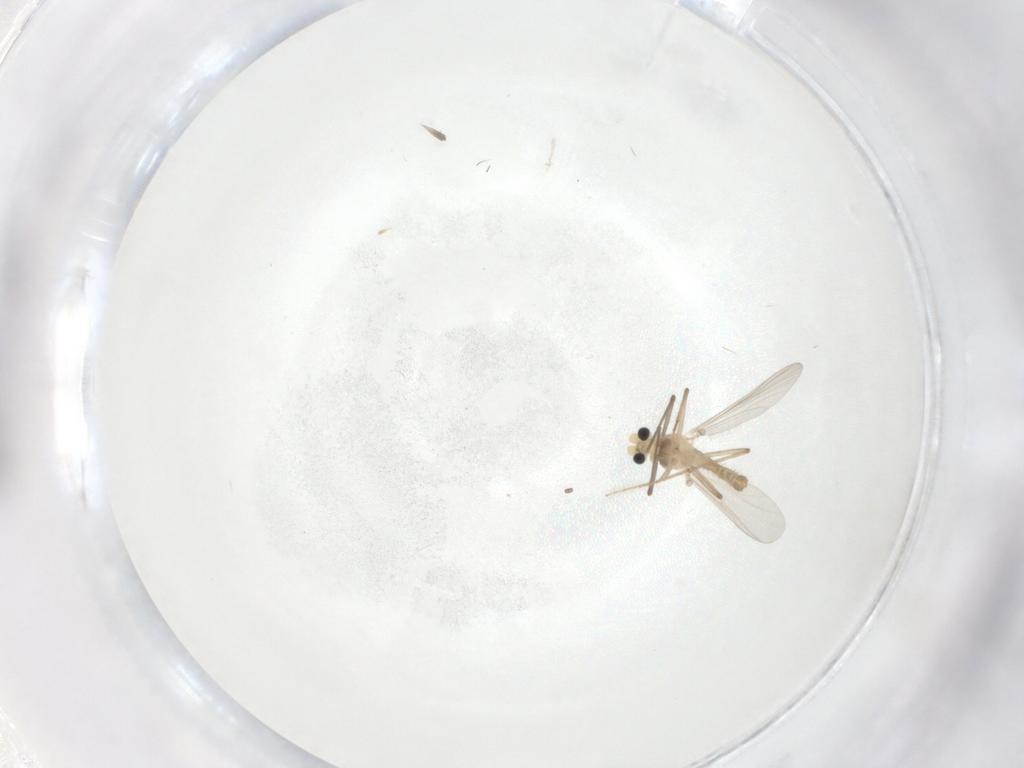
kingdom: Animalia
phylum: Arthropoda
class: Insecta
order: Diptera
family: Chironomidae
